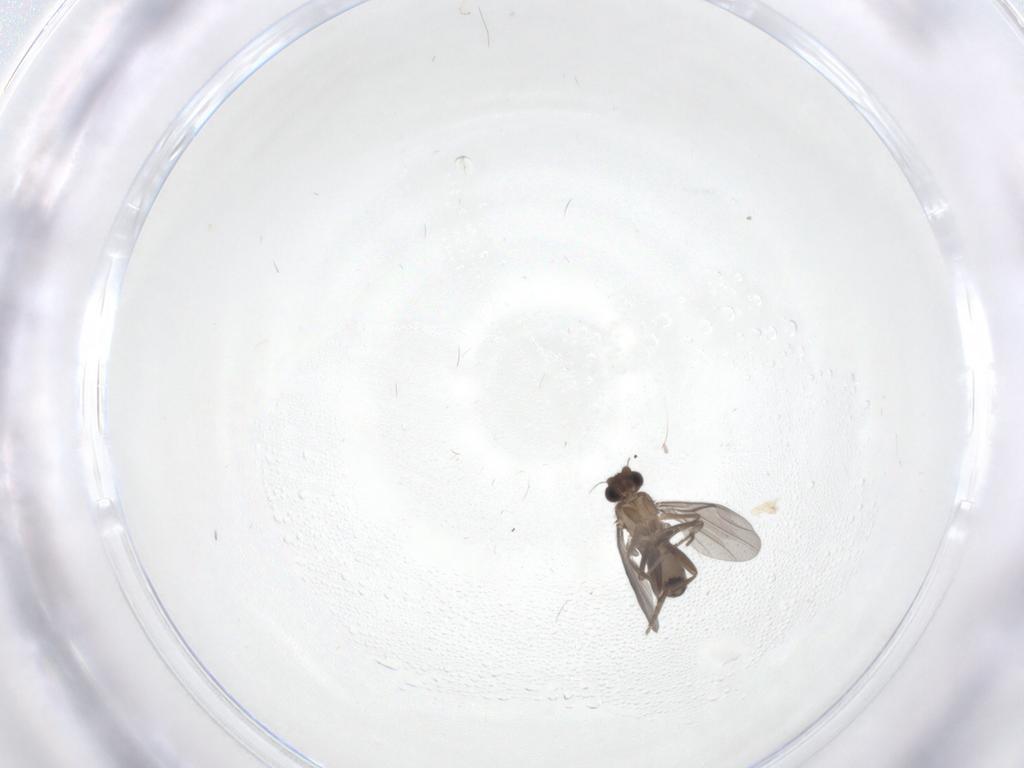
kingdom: Animalia
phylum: Arthropoda
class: Insecta
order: Diptera
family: Phoridae
